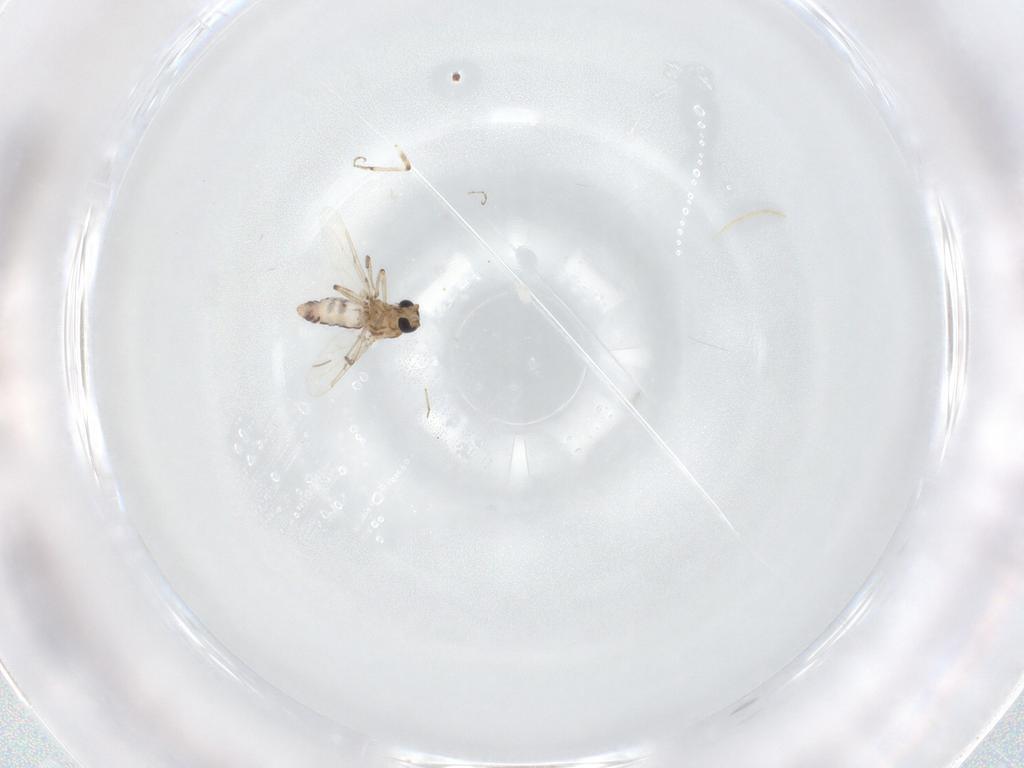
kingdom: Animalia
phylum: Arthropoda
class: Insecta
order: Diptera
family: Ceratopogonidae
